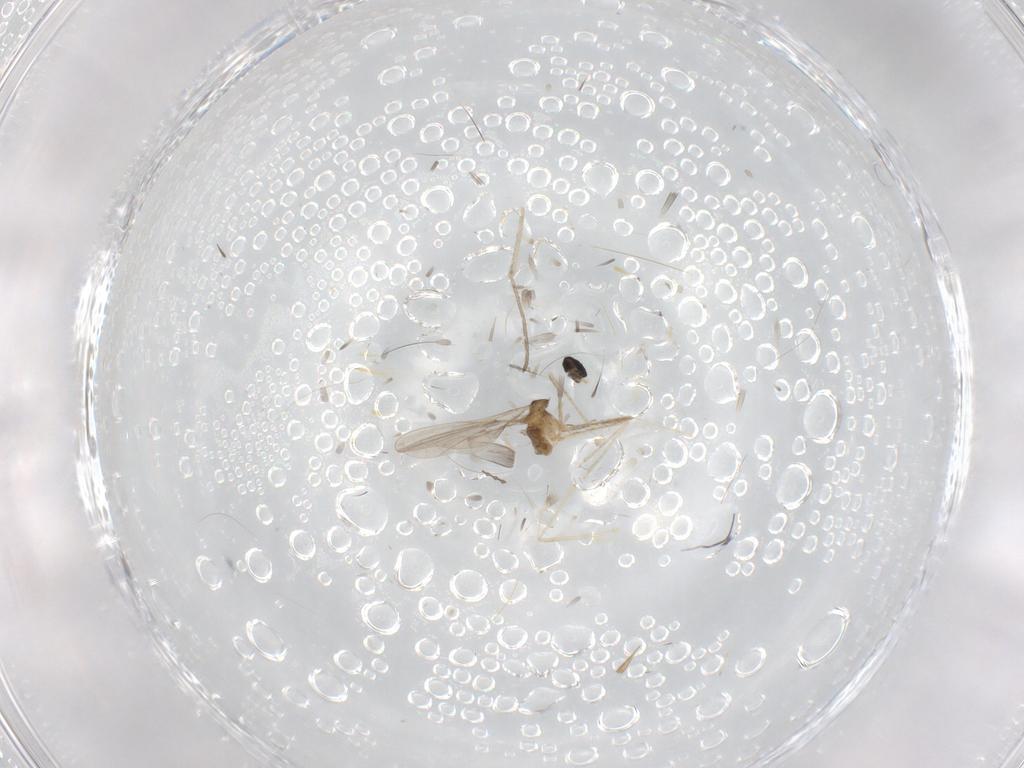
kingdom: Animalia
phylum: Arthropoda
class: Insecta
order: Diptera
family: Cecidomyiidae
